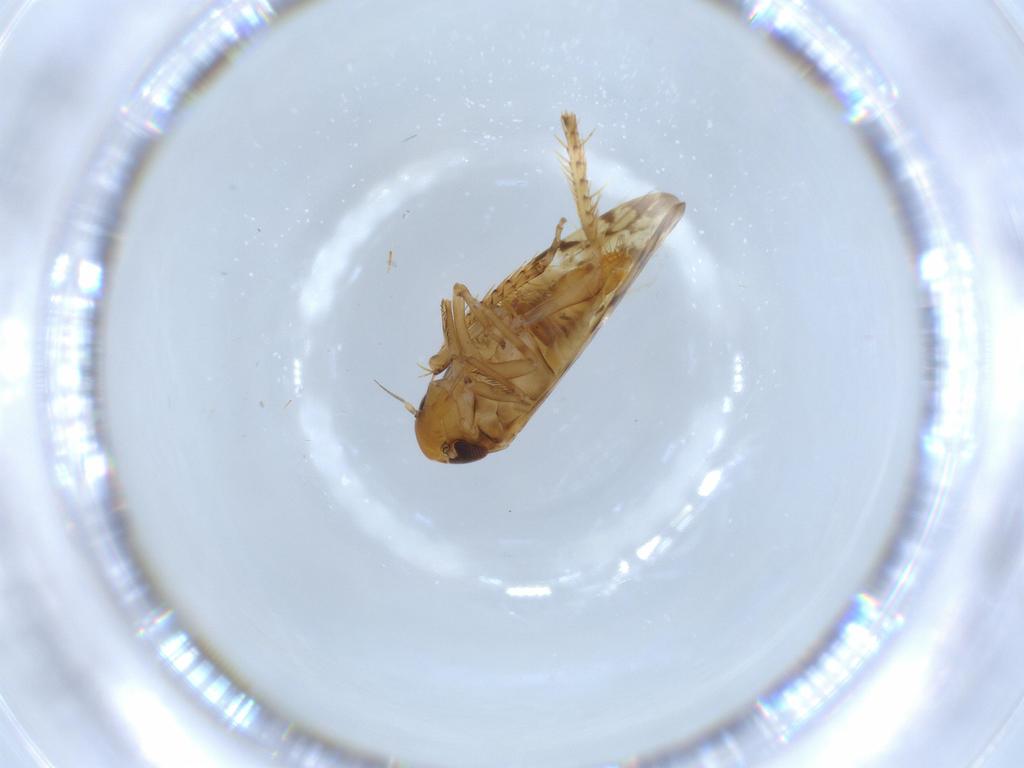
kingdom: Animalia
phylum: Arthropoda
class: Insecta
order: Hemiptera
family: Cicadellidae
